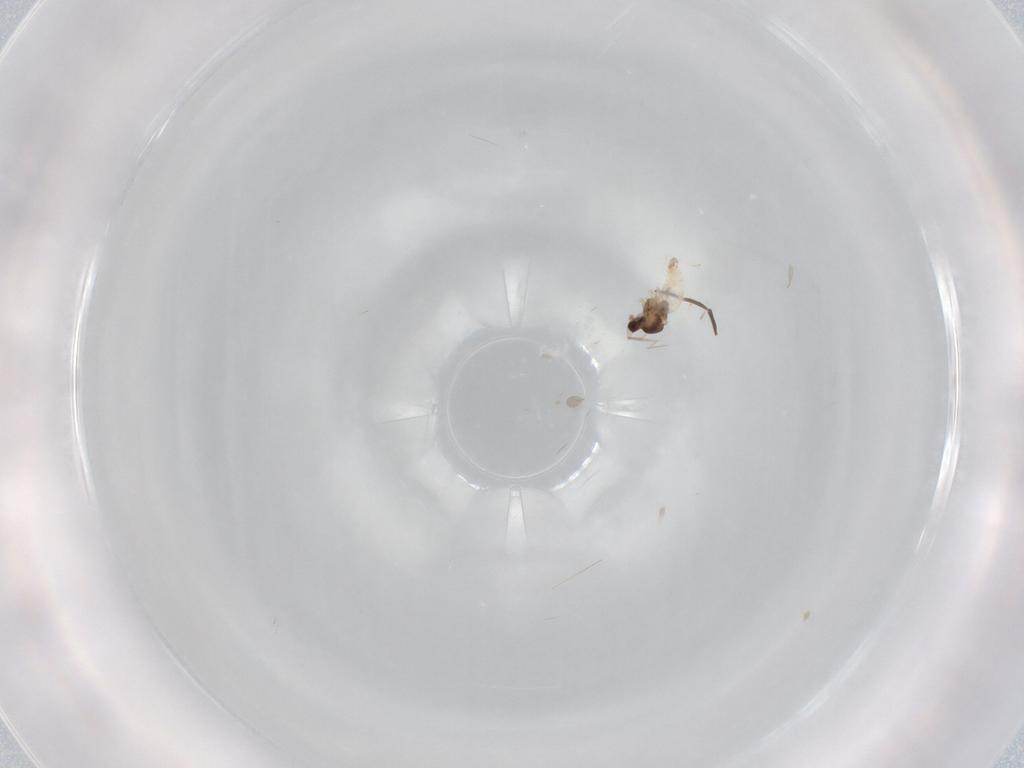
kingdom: Animalia
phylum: Arthropoda
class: Insecta
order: Diptera
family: Cecidomyiidae
